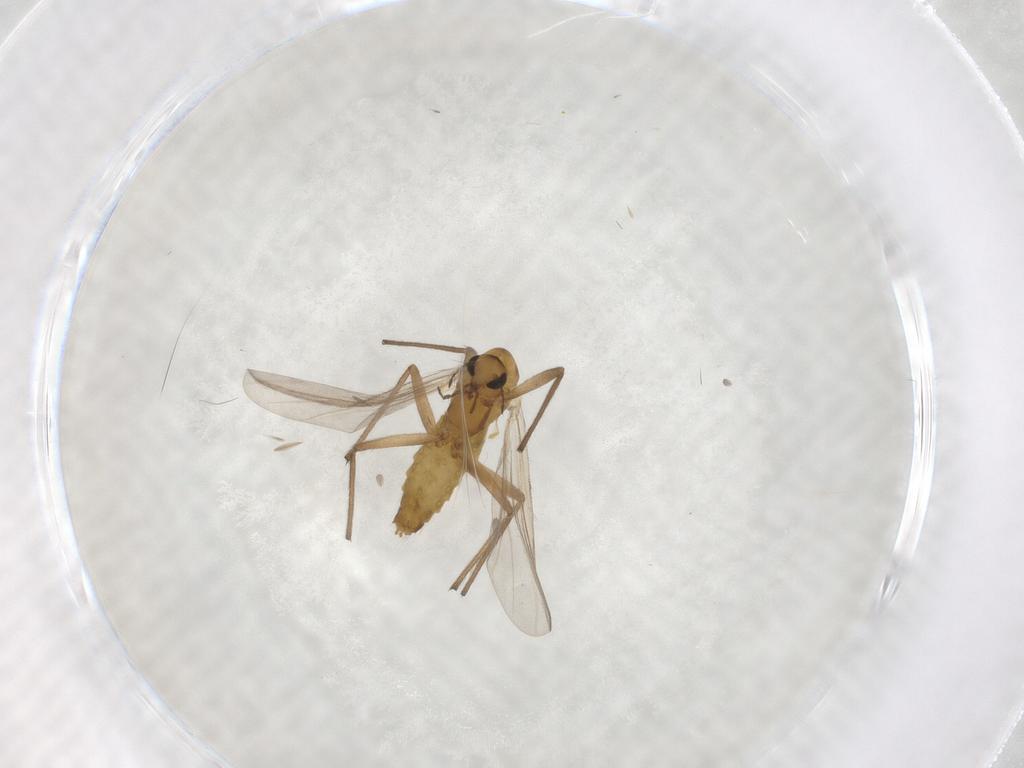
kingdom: Animalia
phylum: Arthropoda
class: Insecta
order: Diptera
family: Chironomidae
